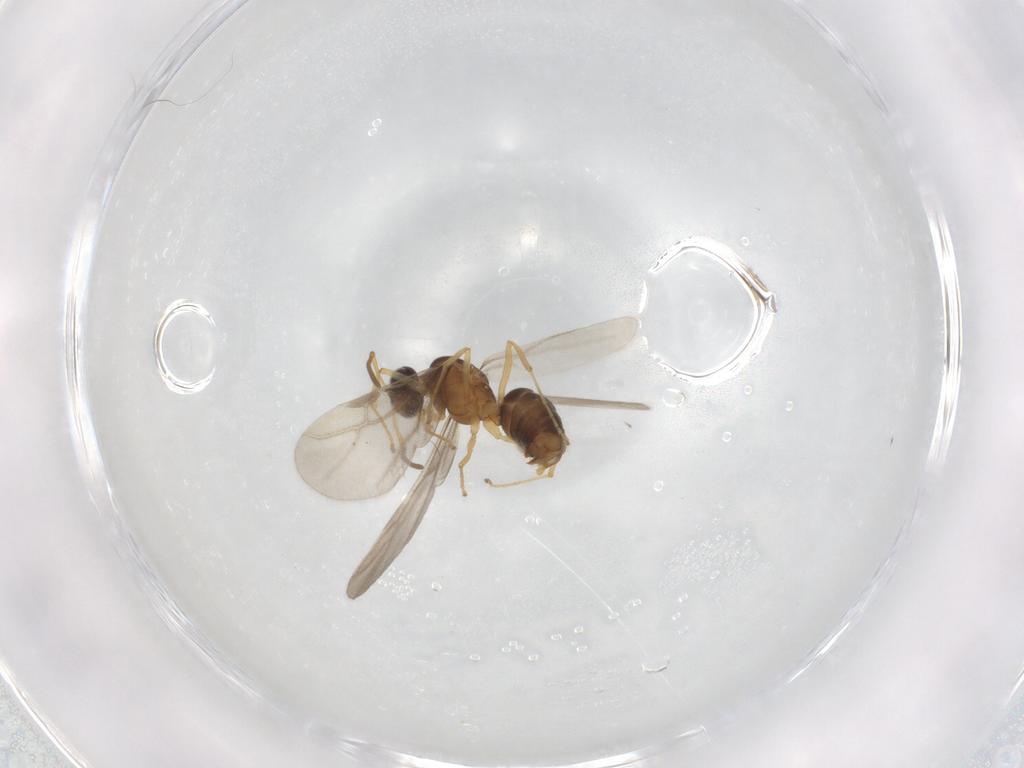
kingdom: Animalia
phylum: Arthropoda
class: Insecta
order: Hymenoptera
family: Formicidae
